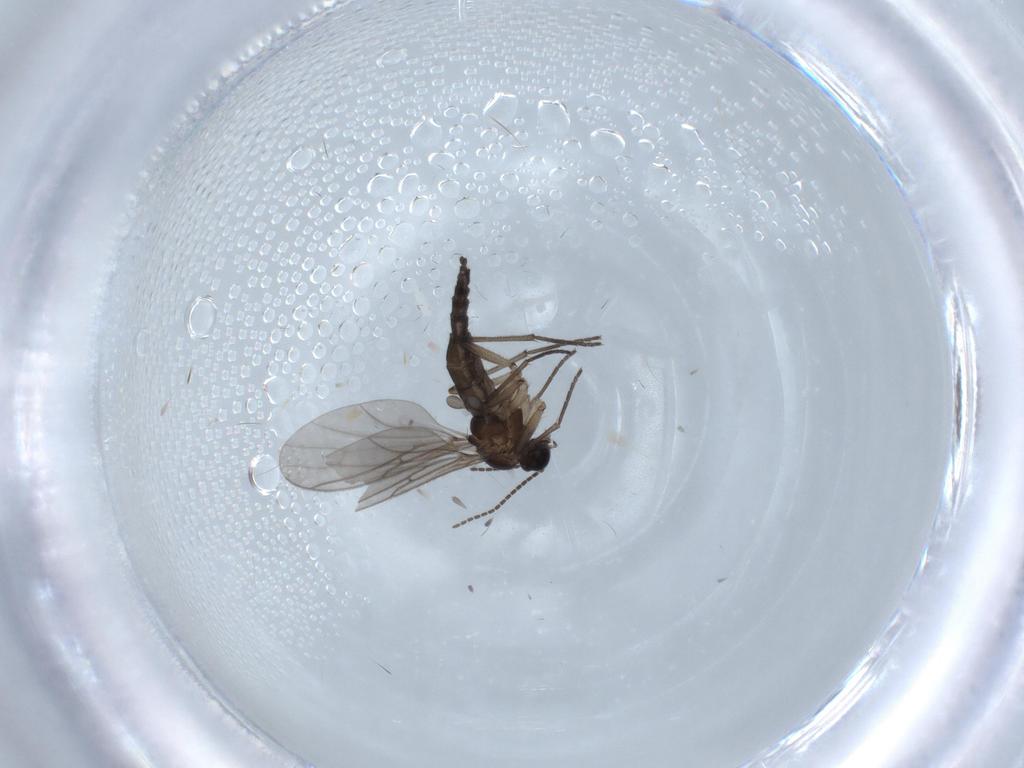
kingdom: Animalia
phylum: Arthropoda
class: Insecta
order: Diptera
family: Sciaridae
